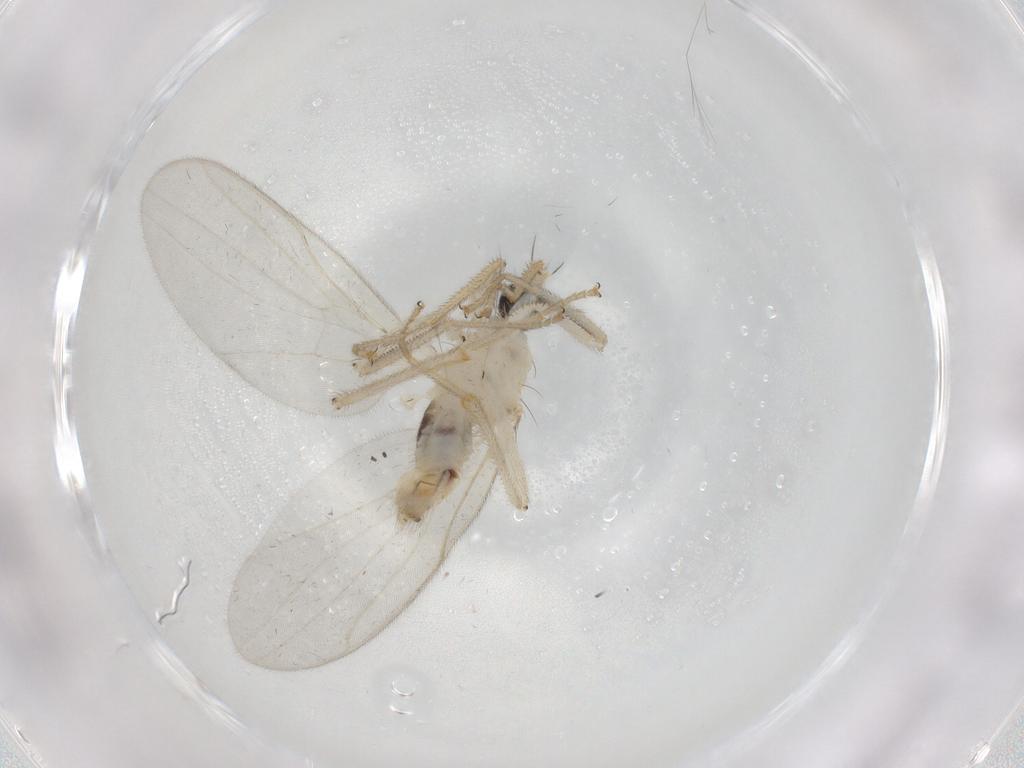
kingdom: Animalia
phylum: Arthropoda
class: Insecta
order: Diptera
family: Hybotidae
